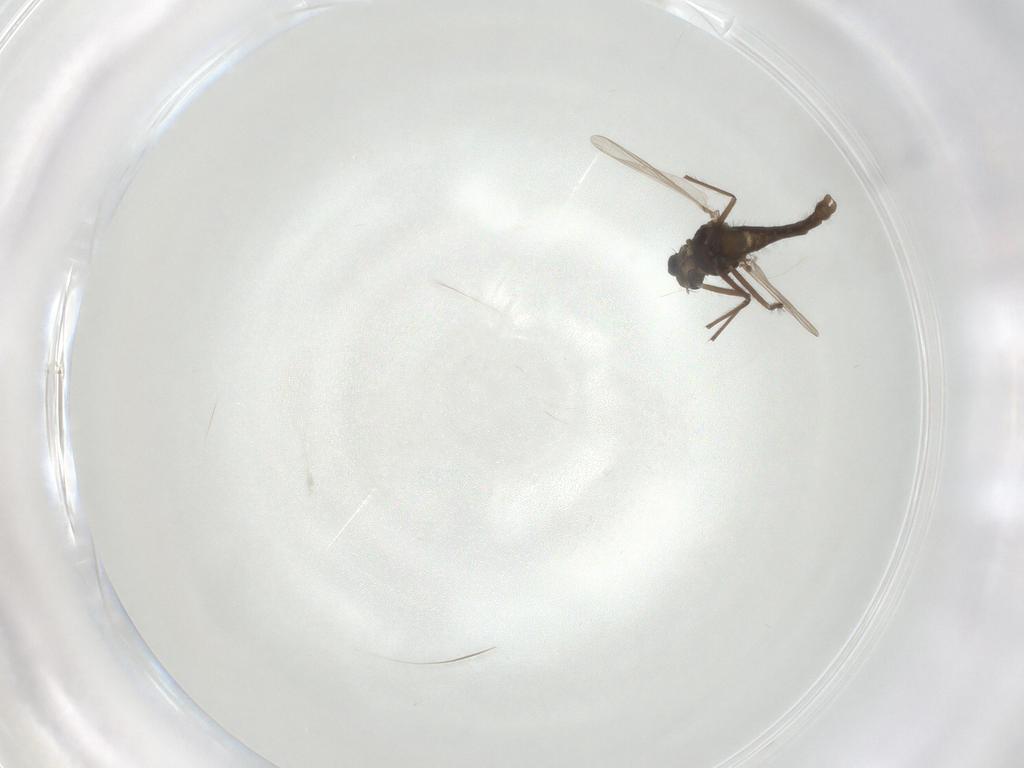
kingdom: Animalia
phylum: Arthropoda
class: Insecta
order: Diptera
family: Chironomidae
